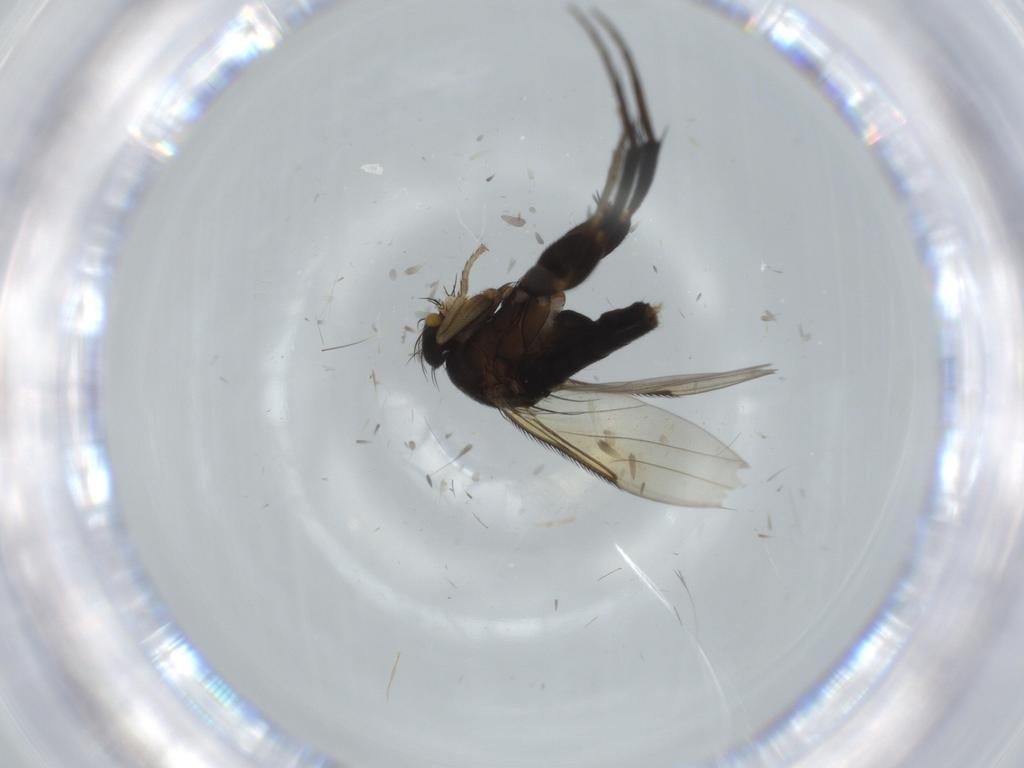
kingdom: Animalia
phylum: Arthropoda
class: Insecta
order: Diptera
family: Phoridae
